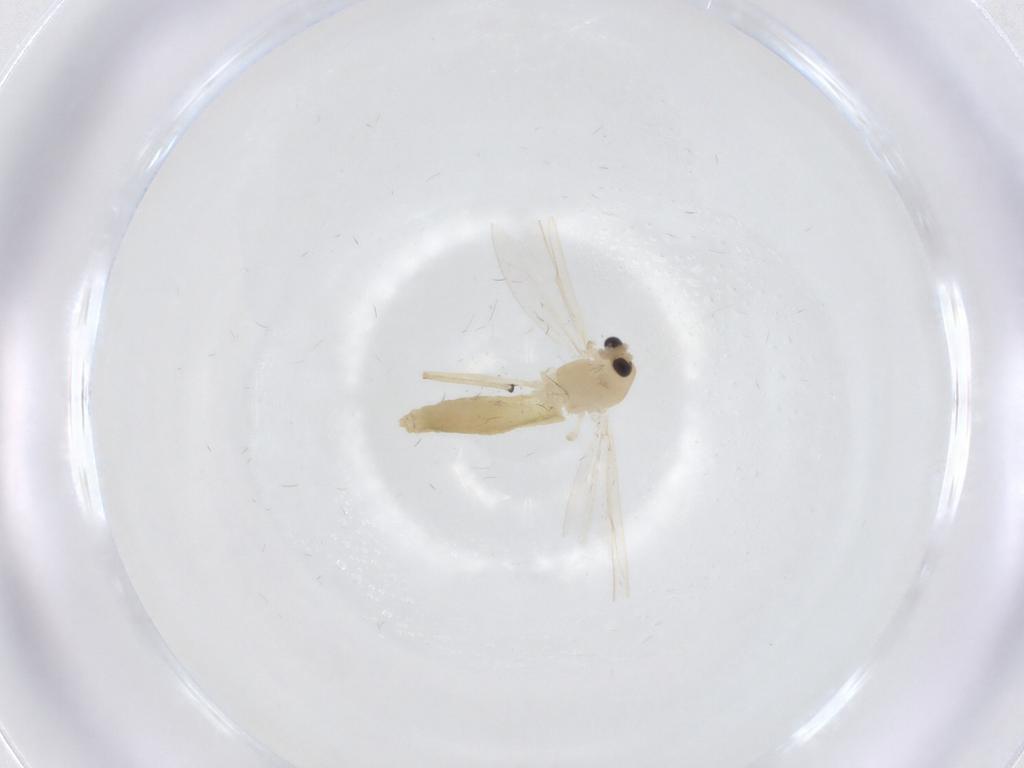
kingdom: Animalia
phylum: Arthropoda
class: Insecta
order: Diptera
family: Chironomidae
